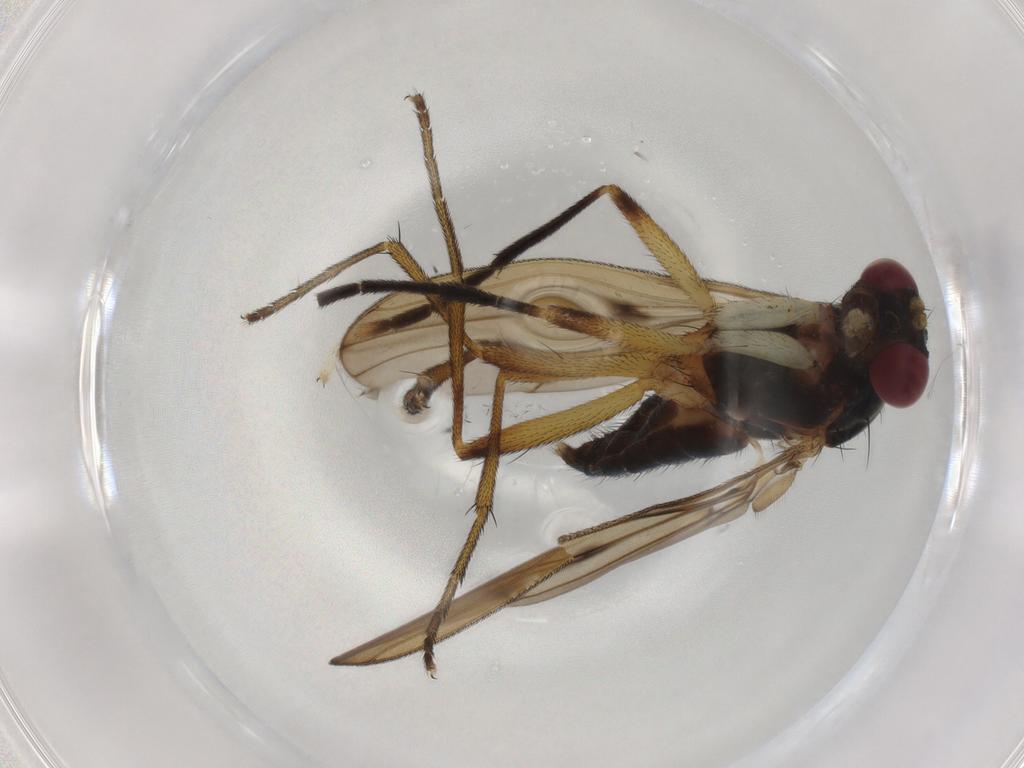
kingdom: Animalia
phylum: Arthropoda
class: Insecta
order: Diptera
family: Sciomyzidae
